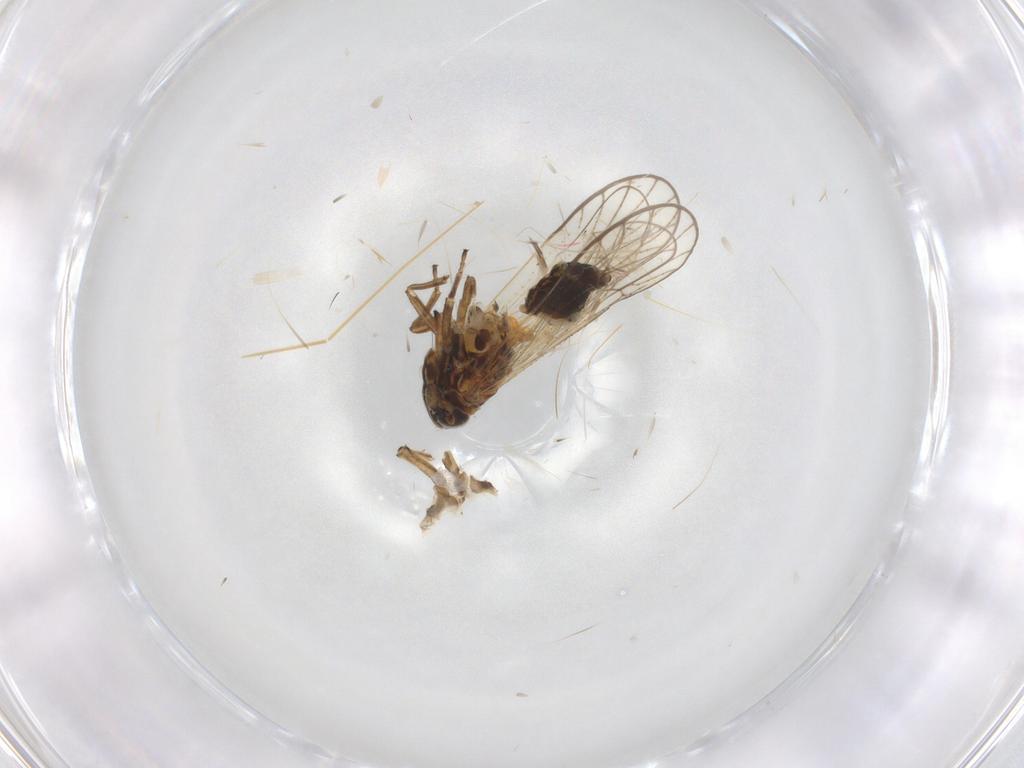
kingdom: Animalia
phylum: Arthropoda
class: Insecta
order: Hemiptera
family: Delphacidae
